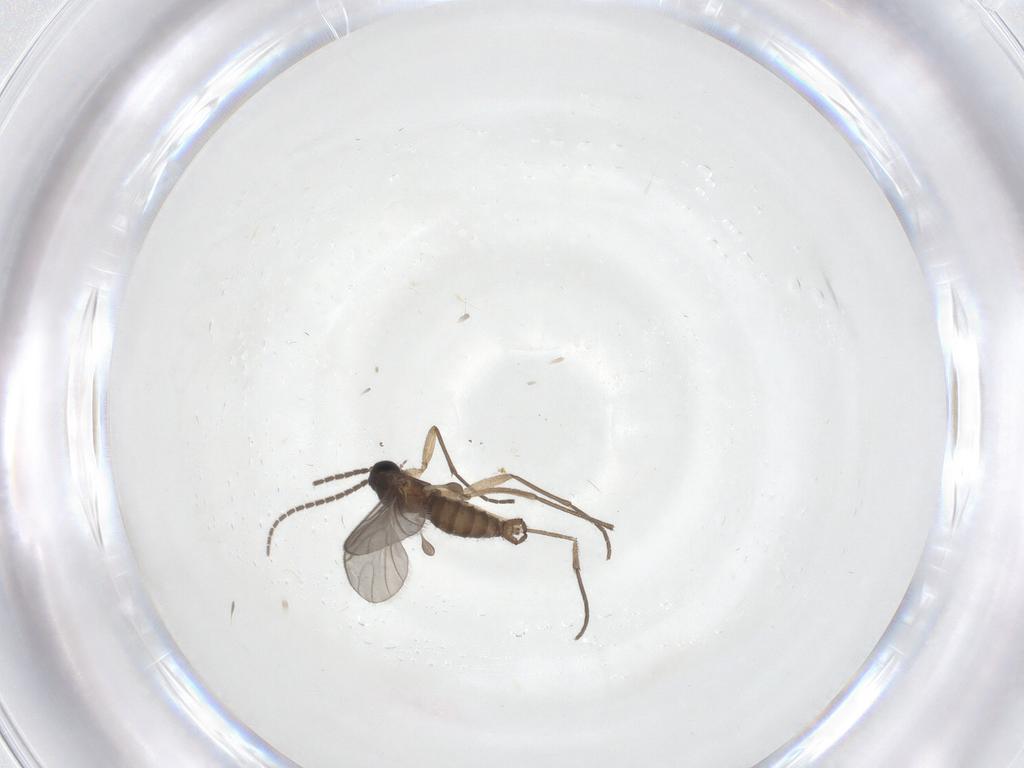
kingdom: Animalia
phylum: Arthropoda
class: Insecta
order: Diptera
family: Sciaridae
